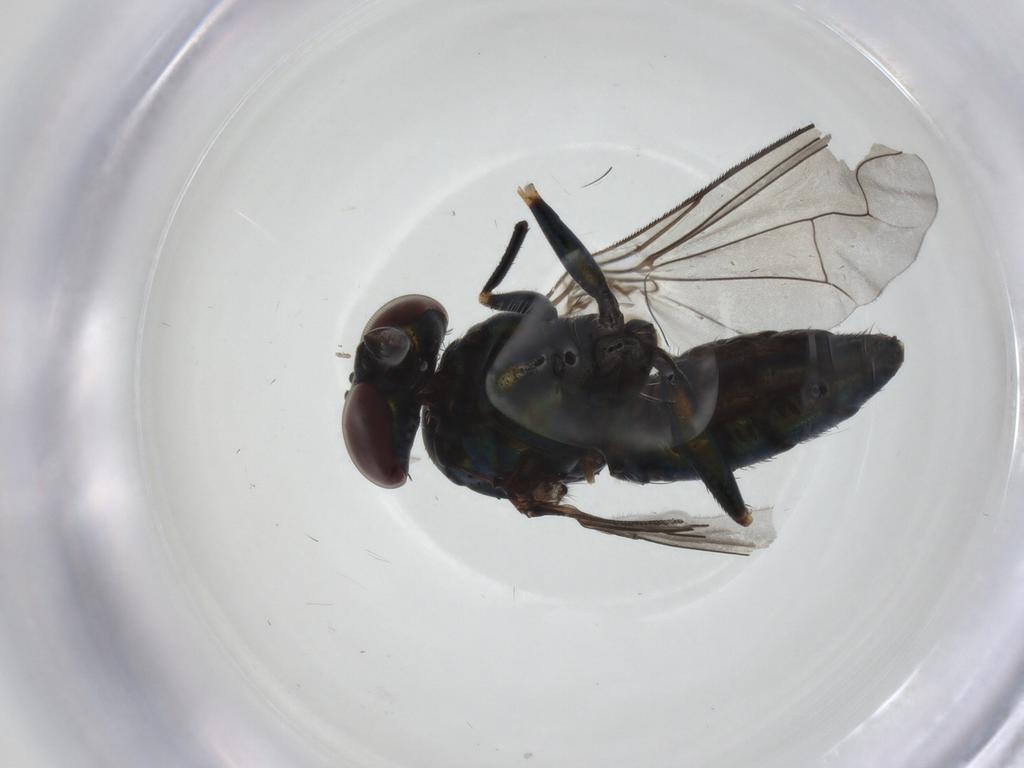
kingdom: Animalia
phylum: Arthropoda
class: Insecta
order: Diptera
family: Dolichopodidae
